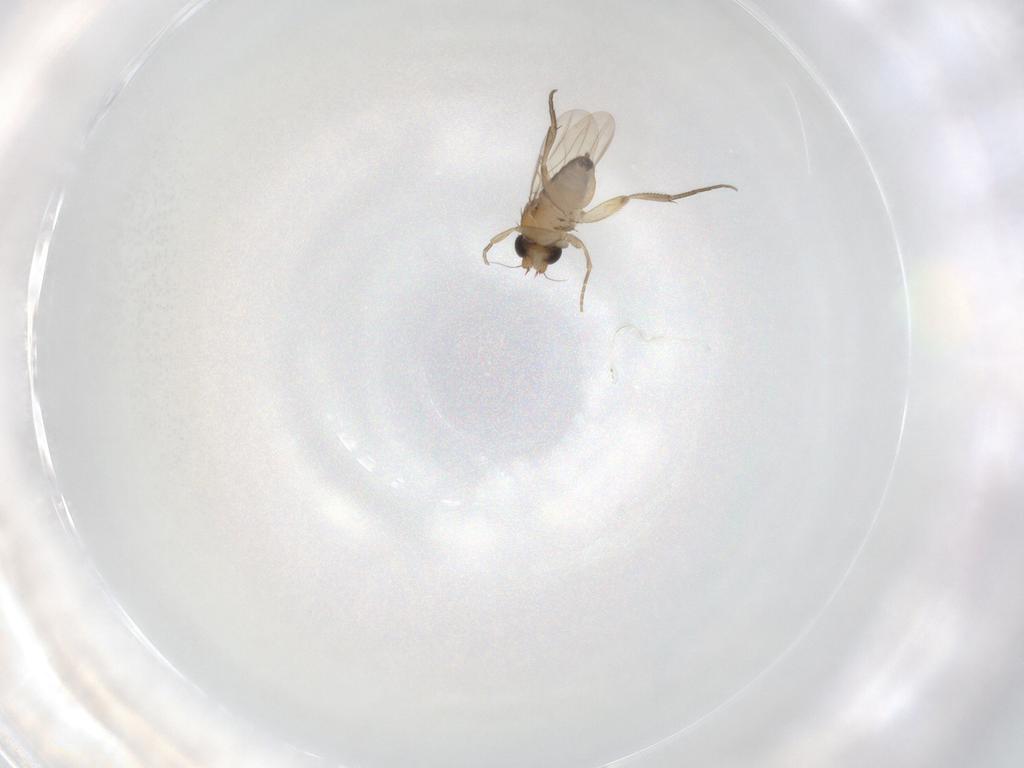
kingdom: Animalia
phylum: Arthropoda
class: Insecta
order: Diptera
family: Phoridae
